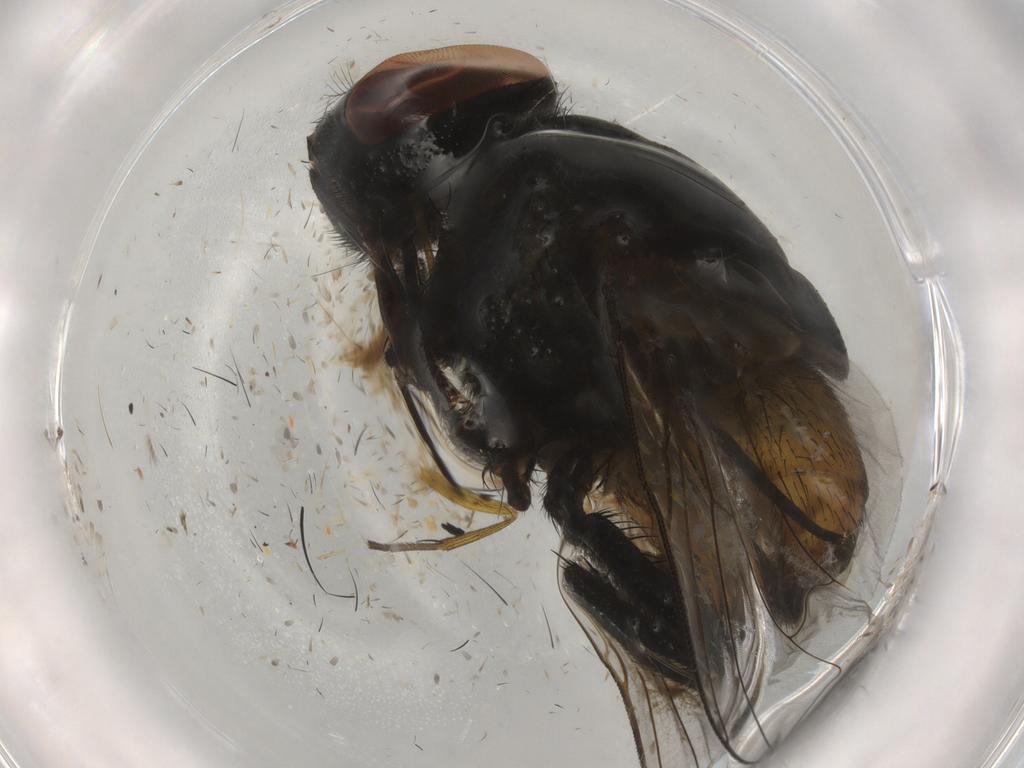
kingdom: Animalia
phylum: Arthropoda
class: Insecta
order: Diptera
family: Muscidae
